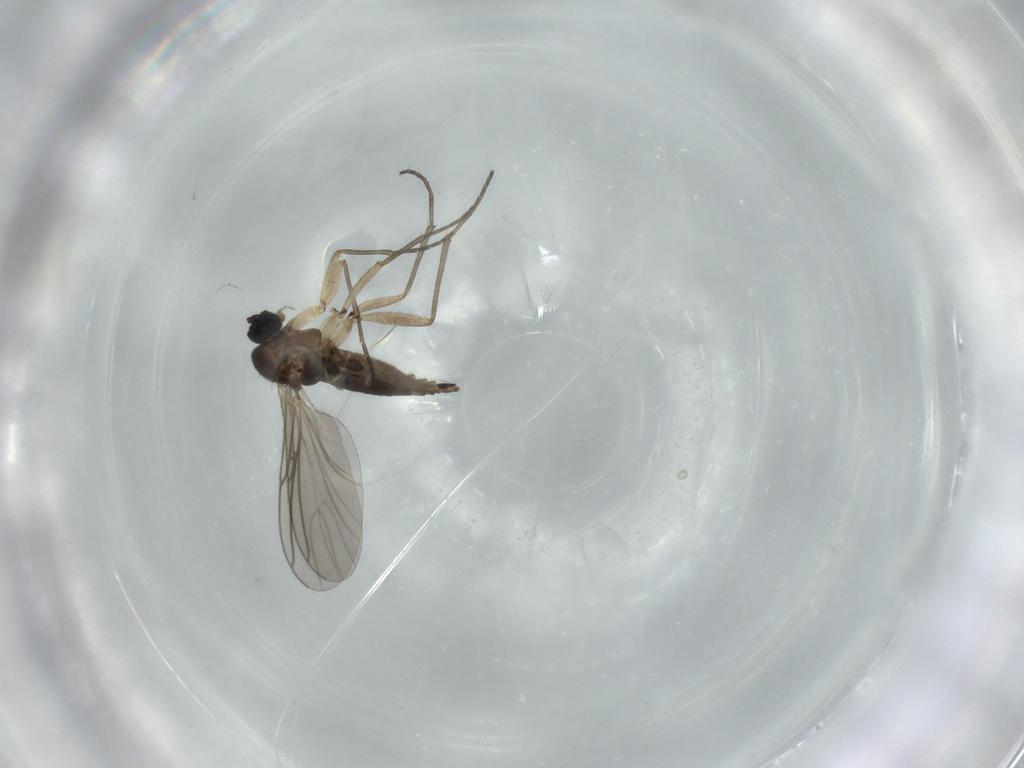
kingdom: Animalia
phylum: Arthropoda
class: Insecta
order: Diptera
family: Sciaridae
